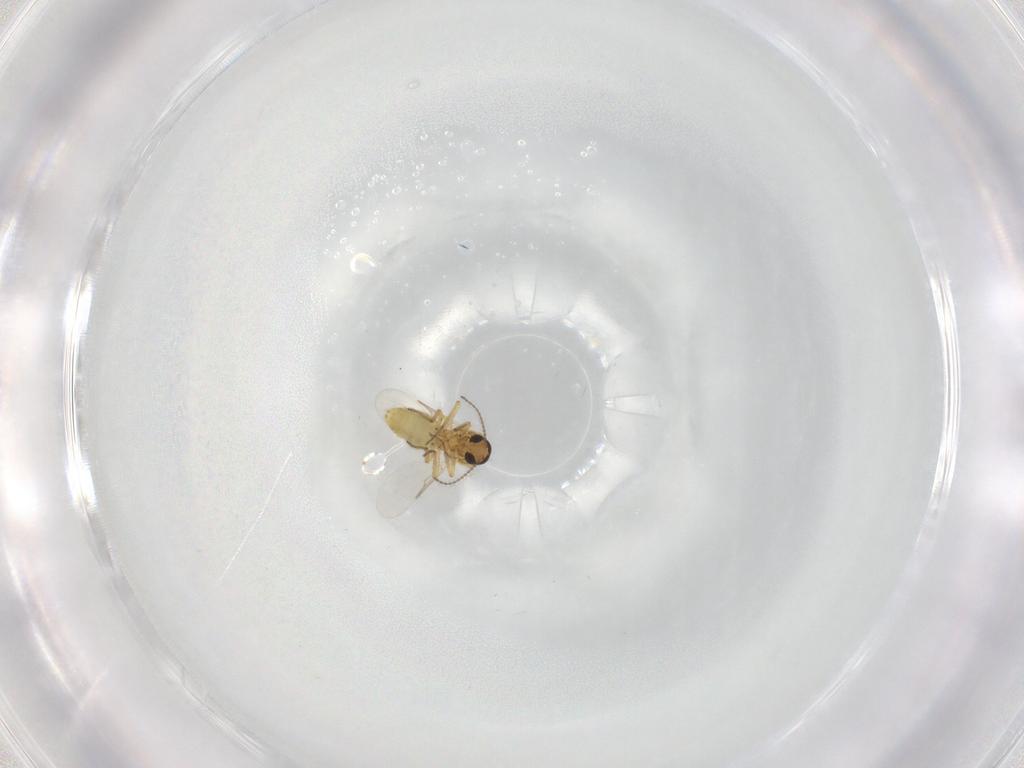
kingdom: Animalia
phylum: Arthropoda
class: Insecta
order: Diptera
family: Ceratopogonidae
